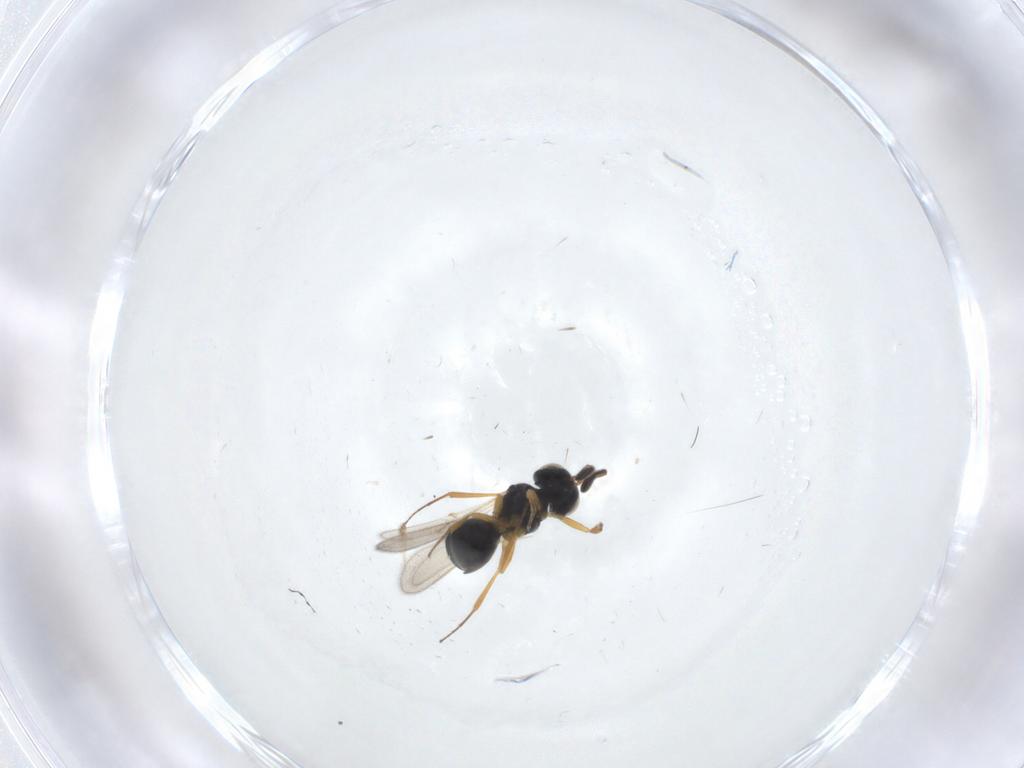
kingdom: Animalia
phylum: Arthropoda
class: Insecta
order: Hymenoptera
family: Scelionidae
